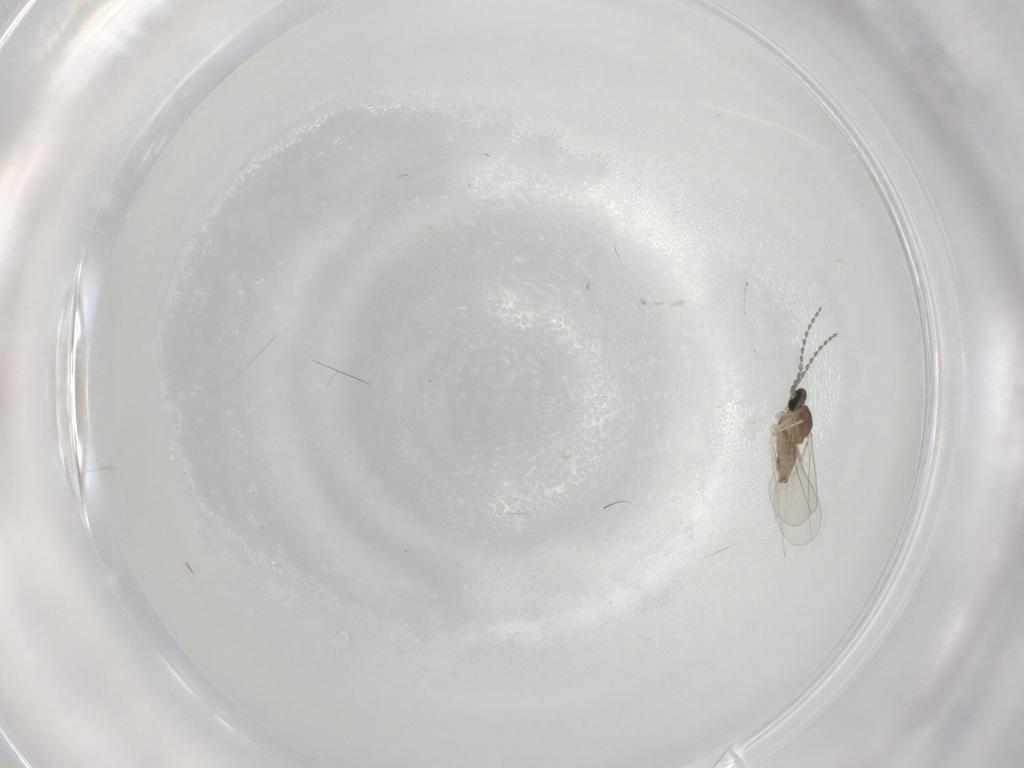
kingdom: Animalia
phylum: Arthropoda
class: Insecta
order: Diptera
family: Cecidomyiidae
